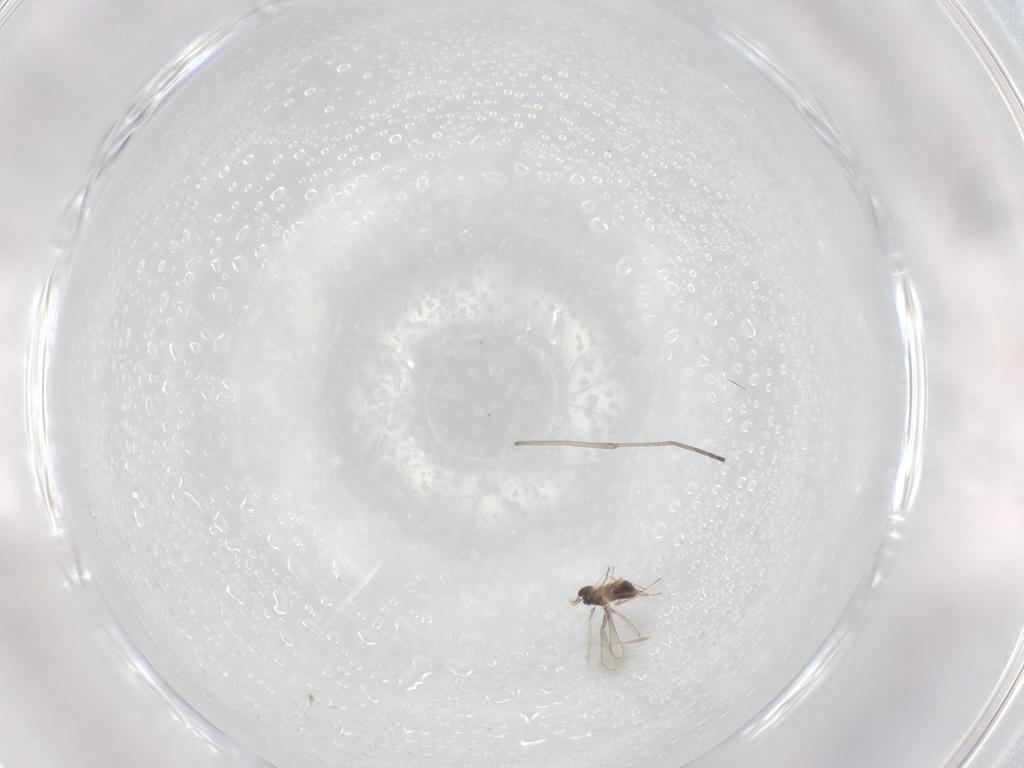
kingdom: Animalia
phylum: Arthropoda
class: Insecta
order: Hymenoptera
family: Mymaridae
